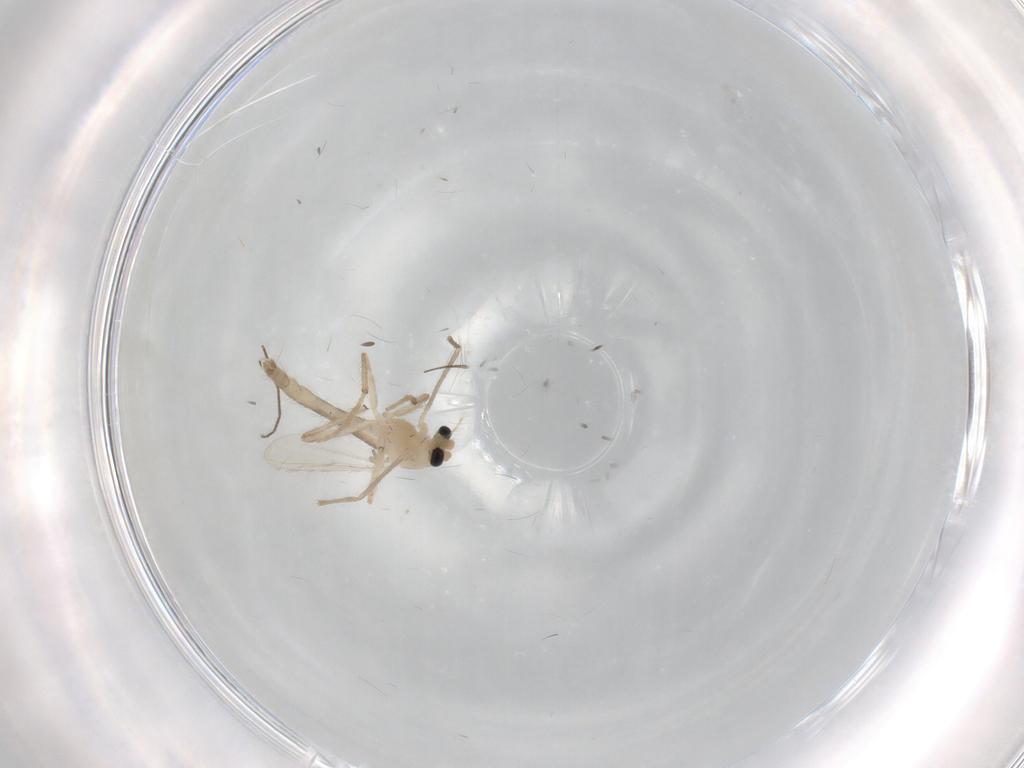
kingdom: Animalia
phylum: Arthropoda
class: Insecta
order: Diptera
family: Chironomidae
